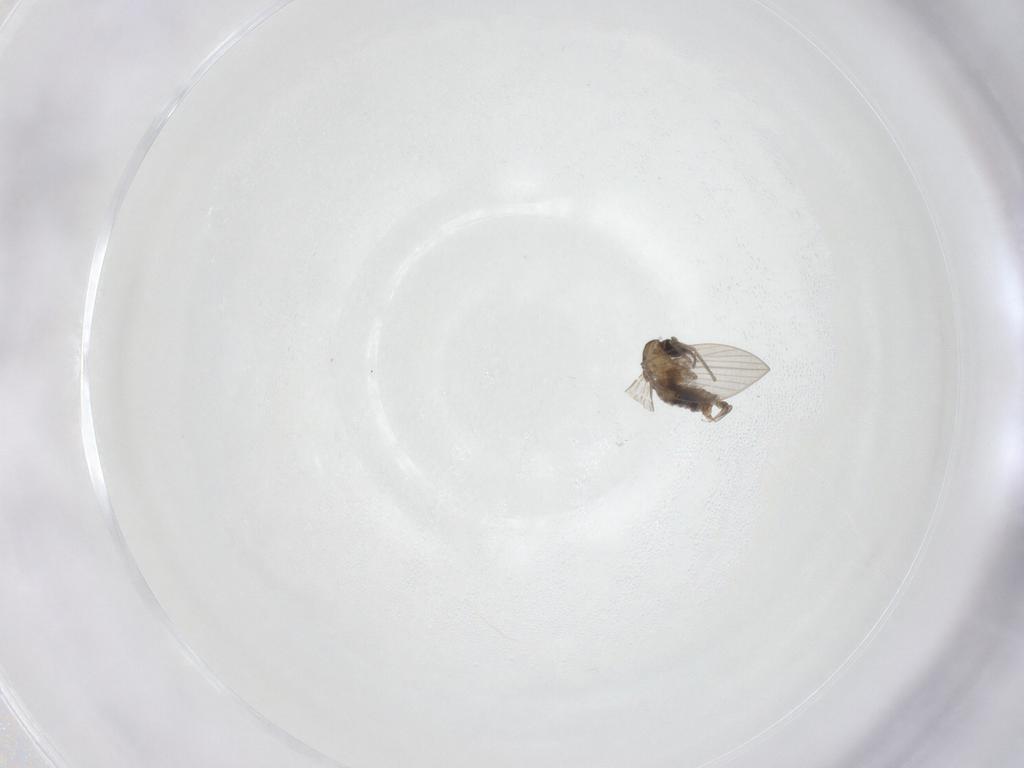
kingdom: Animalia
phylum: Arthropoda
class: Insecta
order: Diptera
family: Psychodidae
